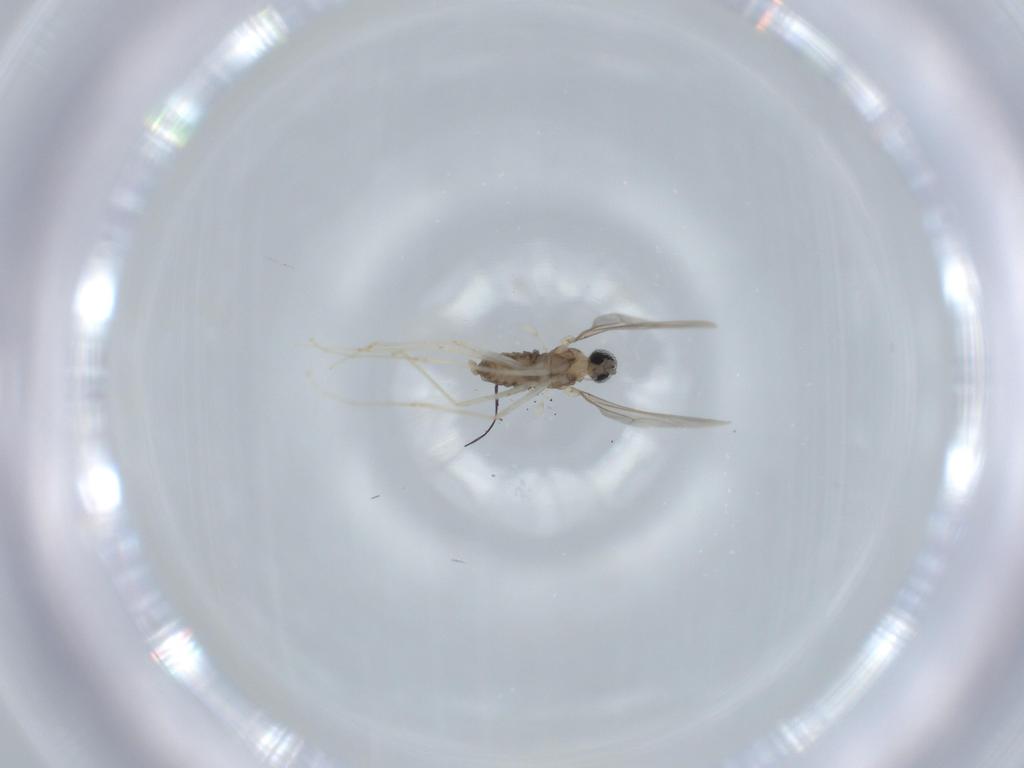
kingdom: Animalia
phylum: Arthropoda
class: Insecta
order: Diptera
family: Cecidomyiidae
